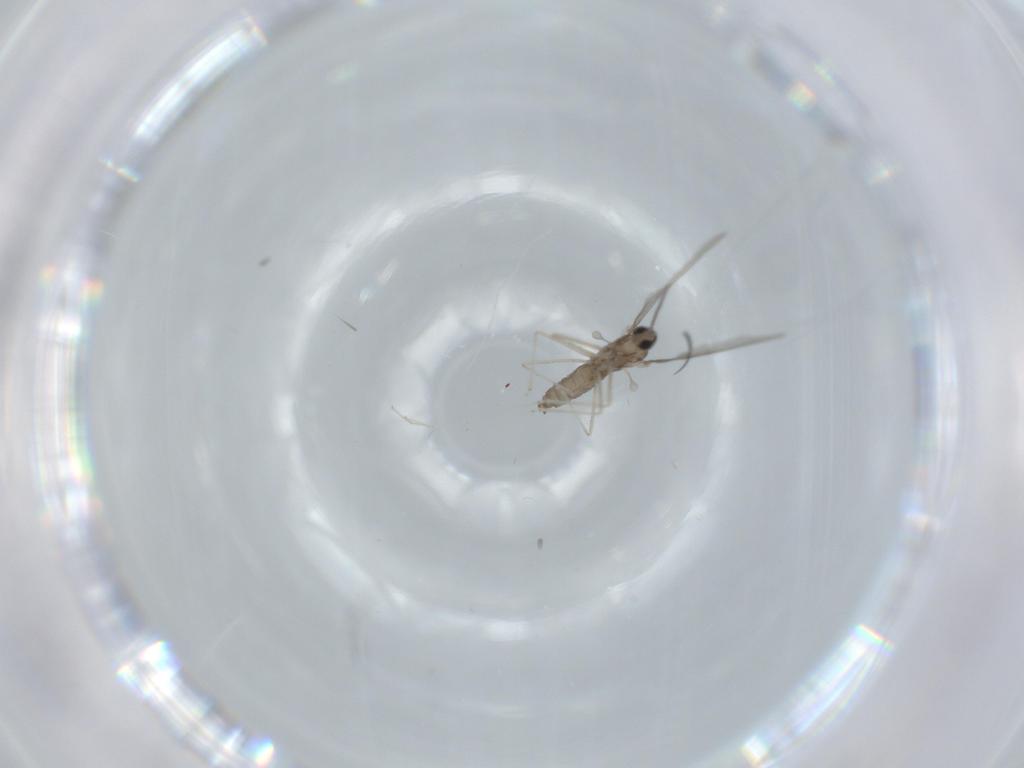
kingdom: Animalia
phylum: Arthropoda
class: Insecta
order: Diptera
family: Cecidomyiidae
